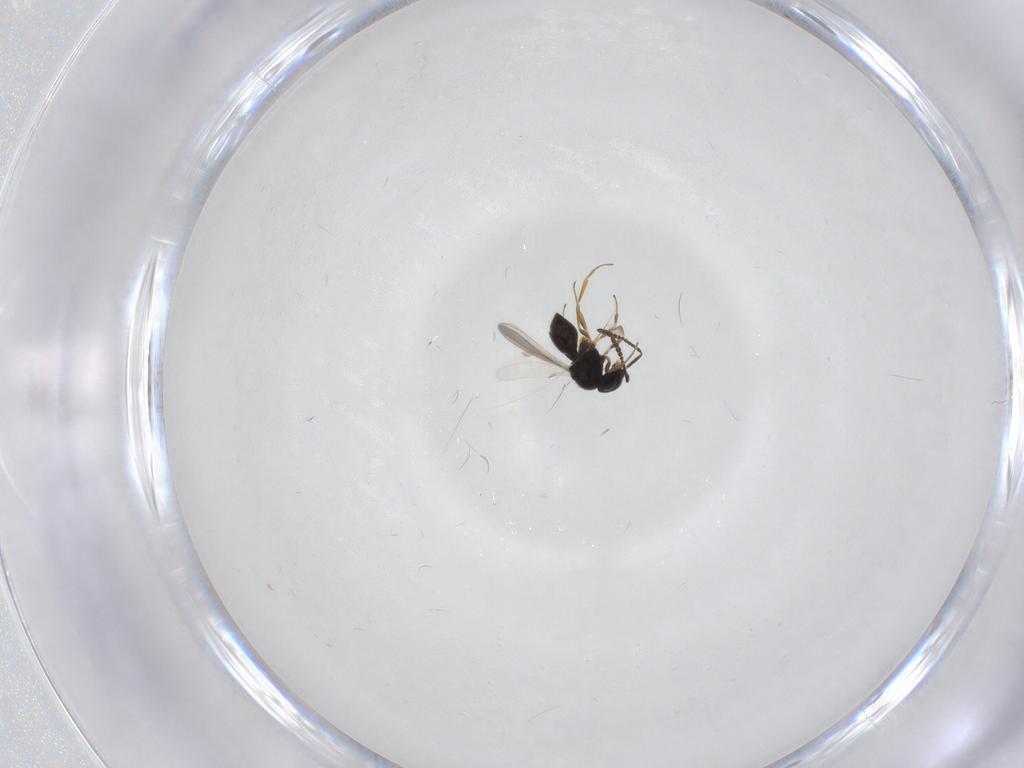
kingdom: Animalia
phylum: Arthropoda
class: Insecta
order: Hymenoptera
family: Scelionidae
